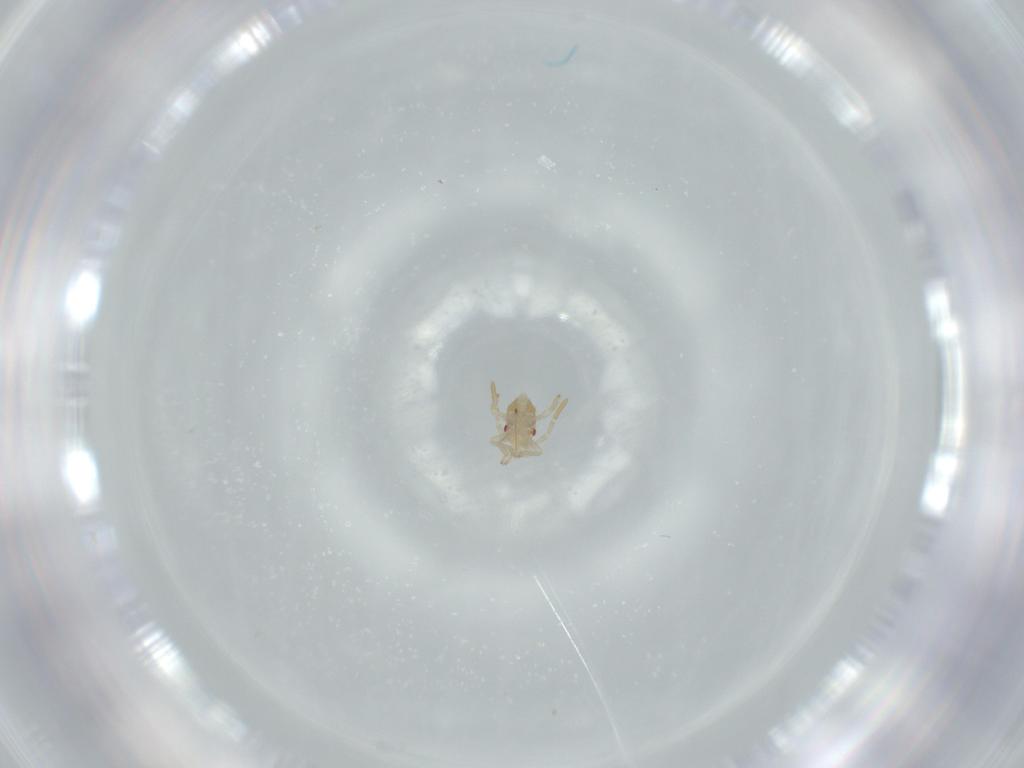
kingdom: Animalia
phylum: Arthropoda
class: Insecta
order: Hemiptera
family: Miridae
